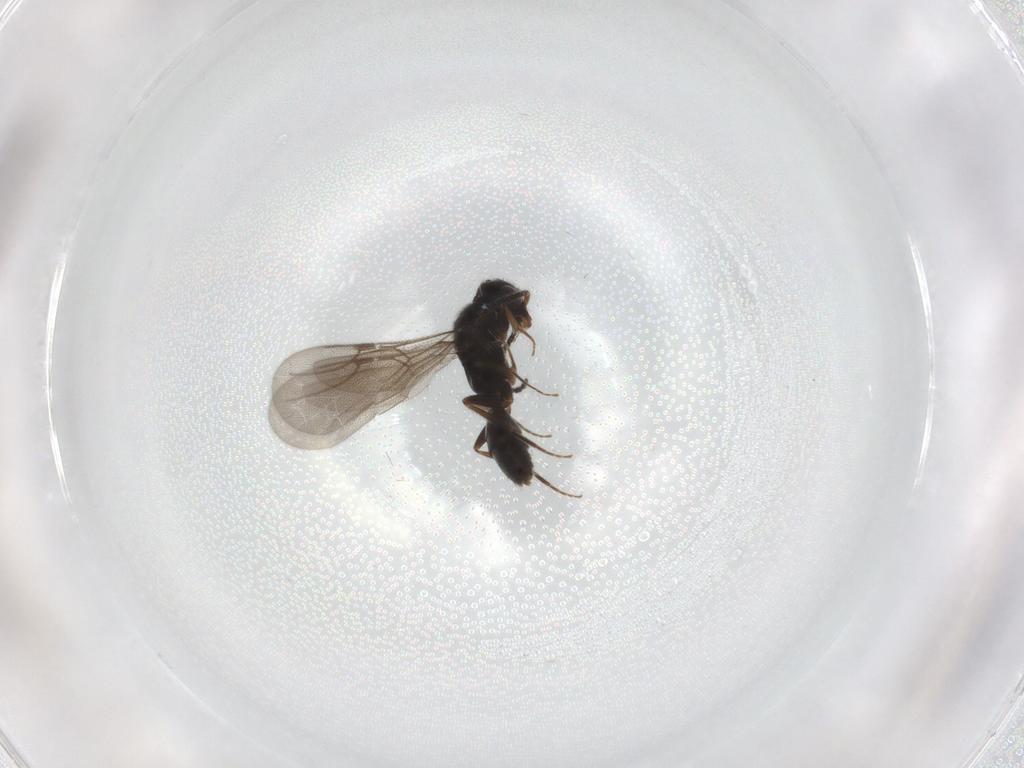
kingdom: Animalia
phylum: Arthropoda
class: Insecta
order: Hymenoptera
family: Bethylidae
